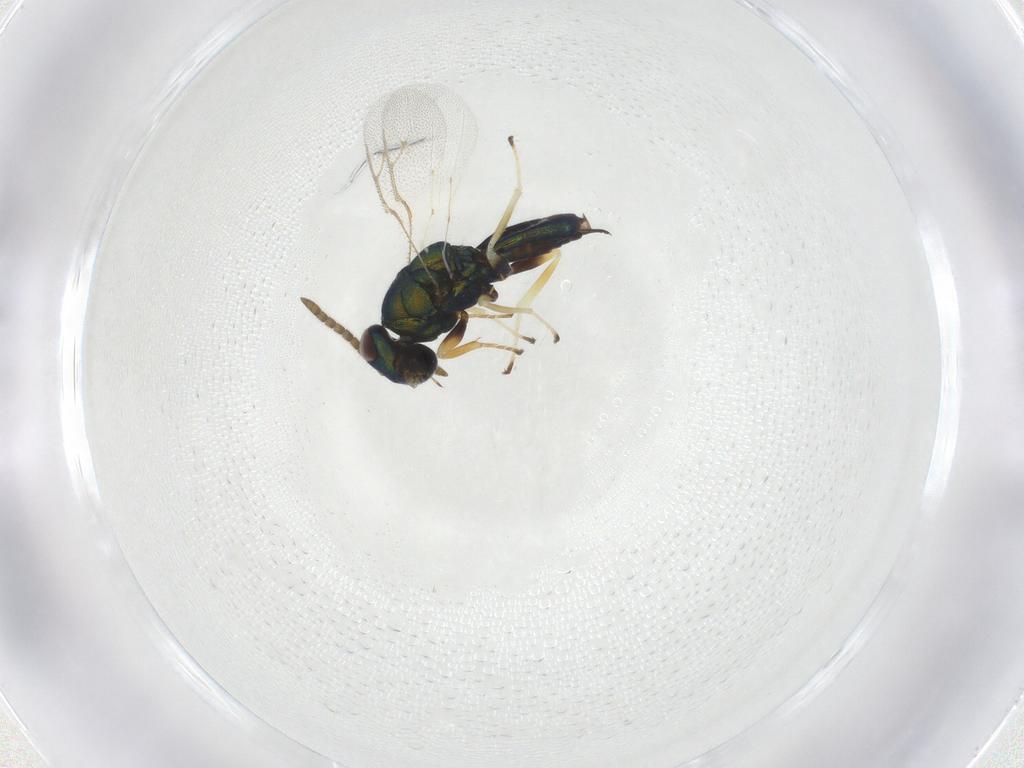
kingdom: Animalia
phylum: Arthropoda
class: Insecta
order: Hymenoptera
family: Pteromalidae
